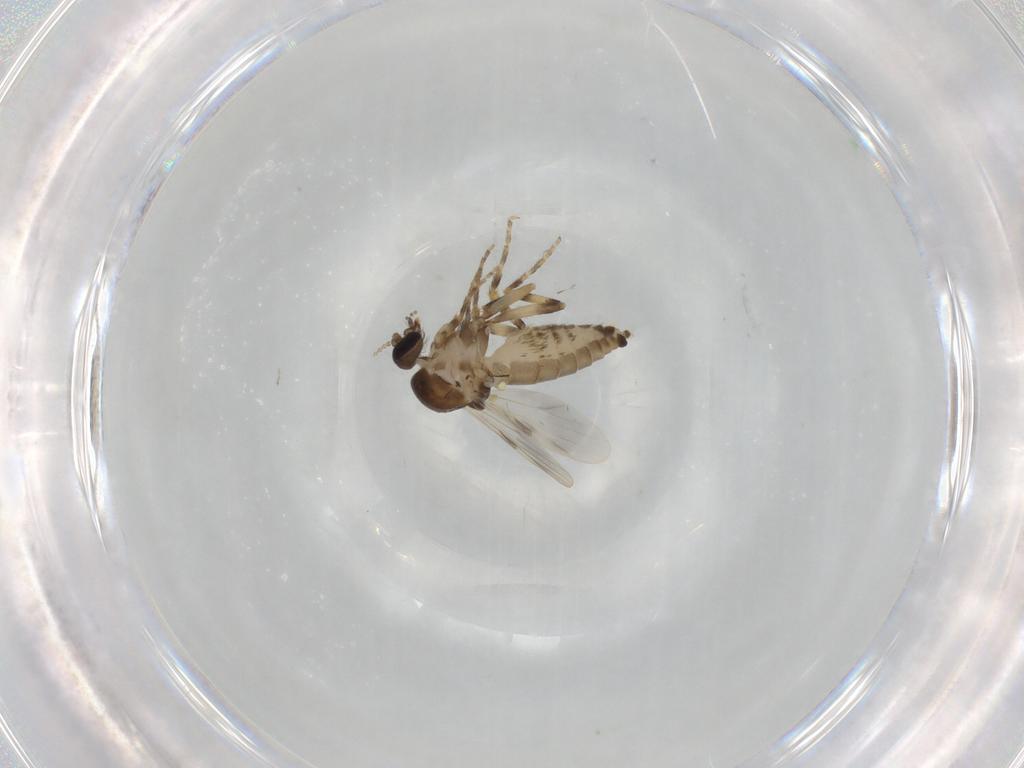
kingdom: Animalia
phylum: Arthropoda
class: Insecta
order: Diptera
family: Ceratopogonidae
